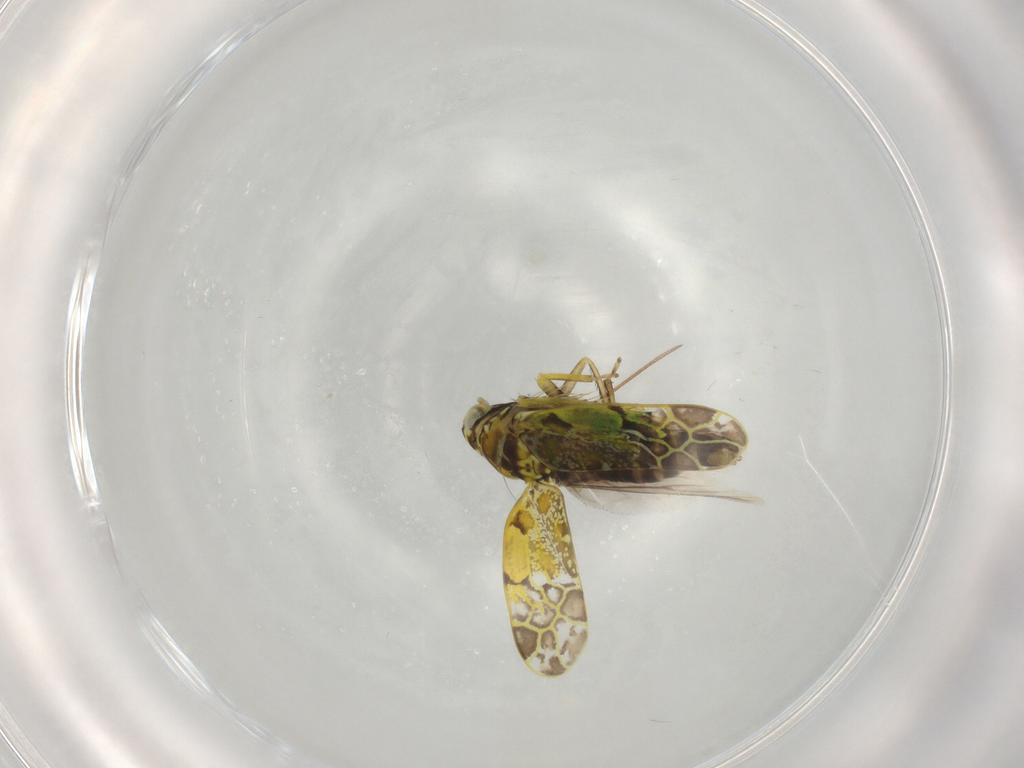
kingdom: Animalia
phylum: Arthropoda
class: Insecta
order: Hemiptera
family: Cicadellidae
